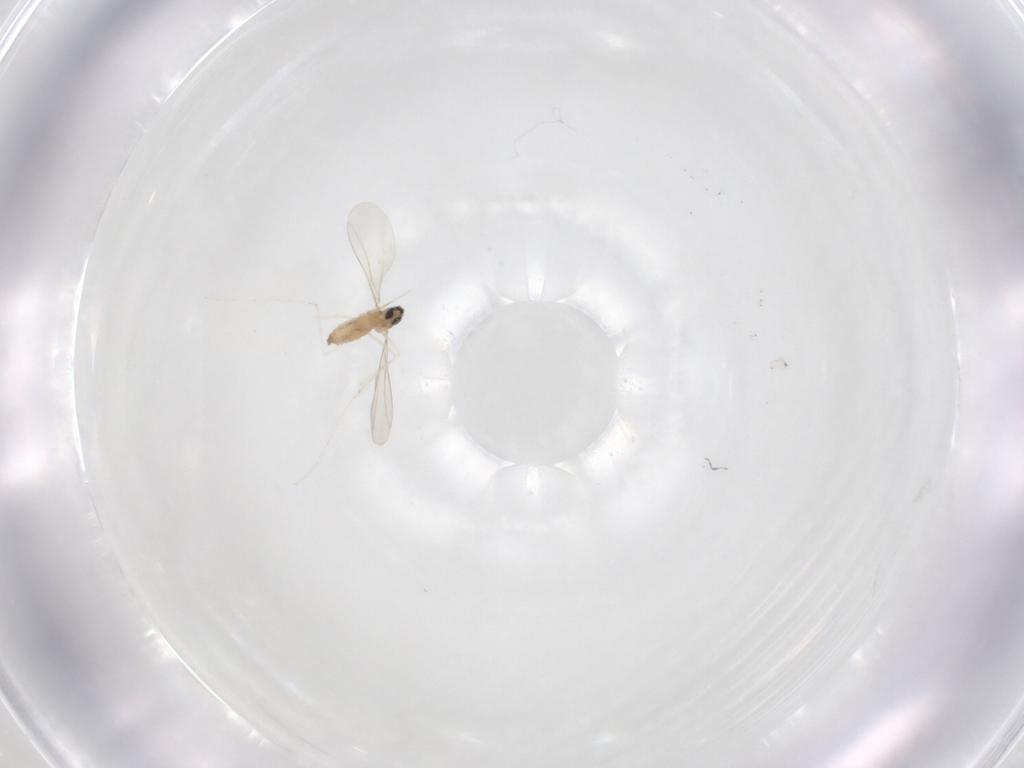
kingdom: Animalia
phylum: Arthropoda
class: Insecta
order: Diptera
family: Cecidomyiidae
